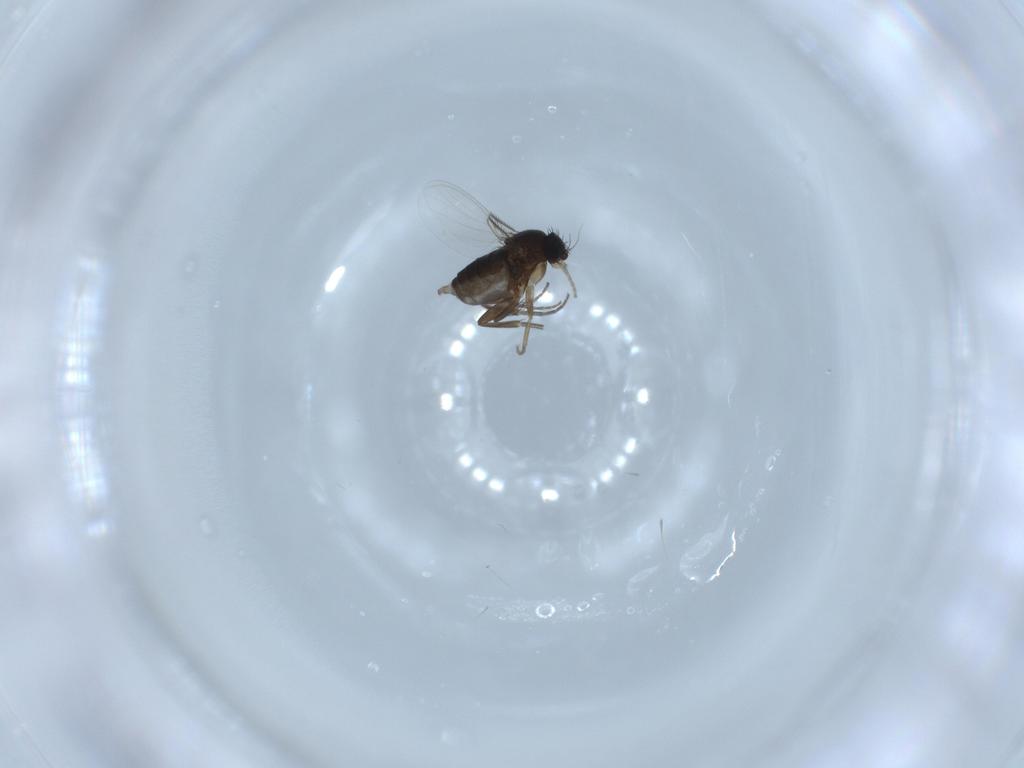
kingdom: Animalia
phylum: Arthropoda
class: Insecta
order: Diptera
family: Phoridae
